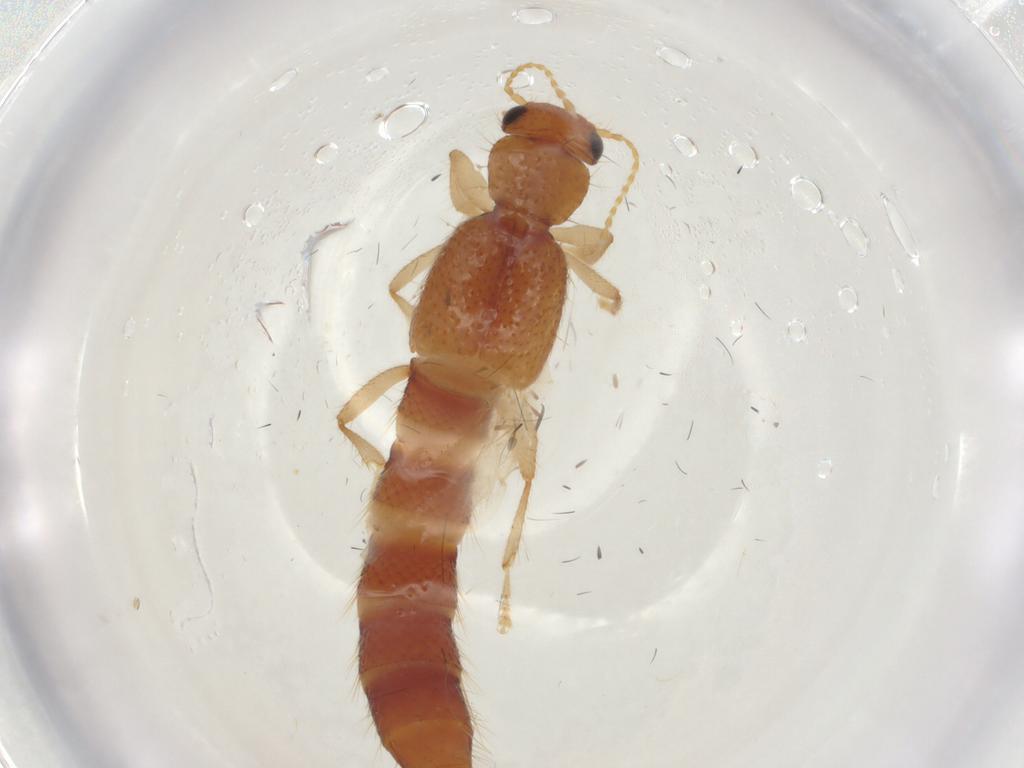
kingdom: Animalia
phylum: Arthropoda
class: Insecta
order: Coleoptera
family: Staphylinidae
